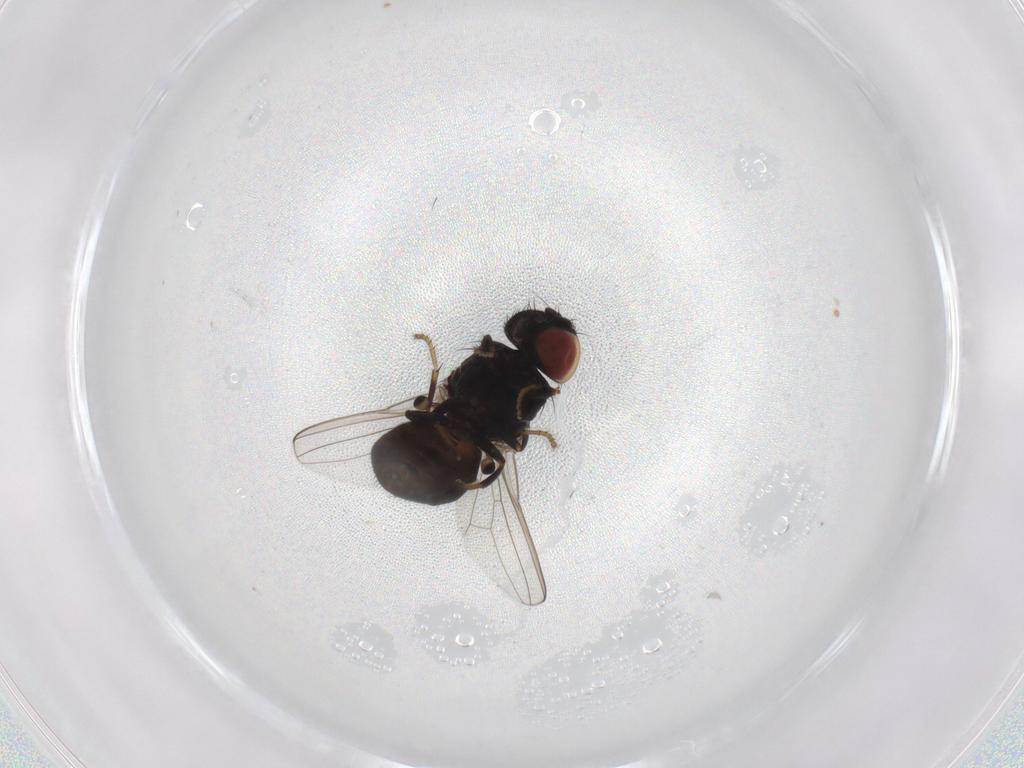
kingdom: Animalia
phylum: Arthropoda
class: Insecta
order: Diptera
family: Milichiidae
